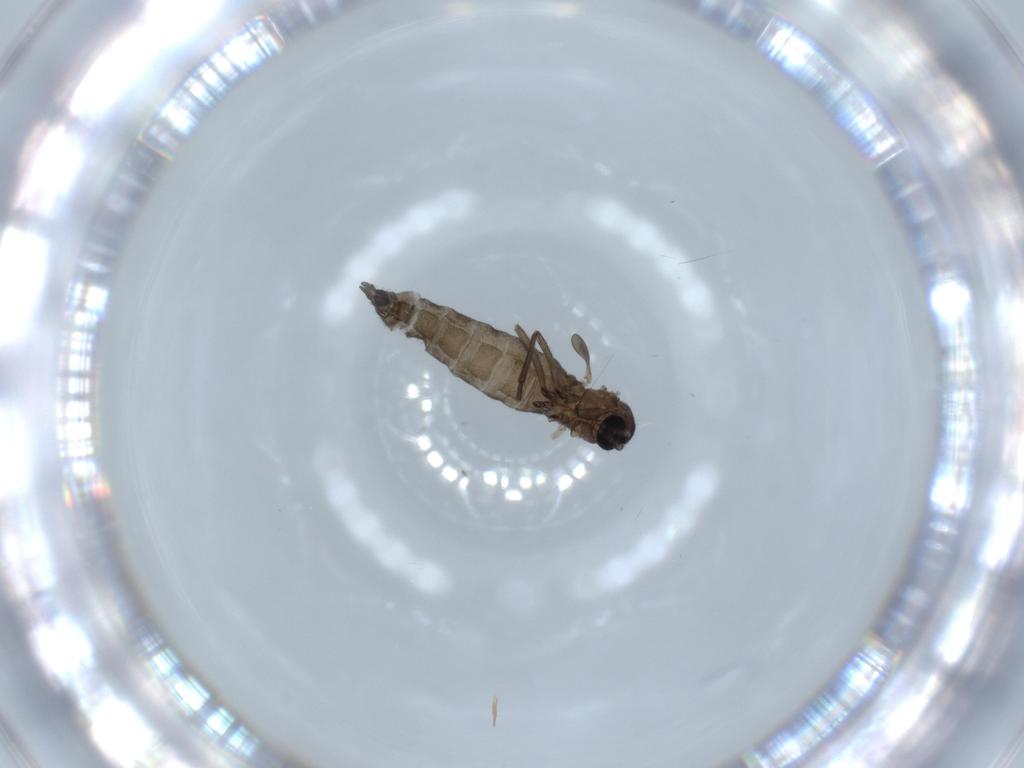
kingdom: Animalia
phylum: Arthropoda
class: Insecta
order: Diptera
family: Sciaridae
